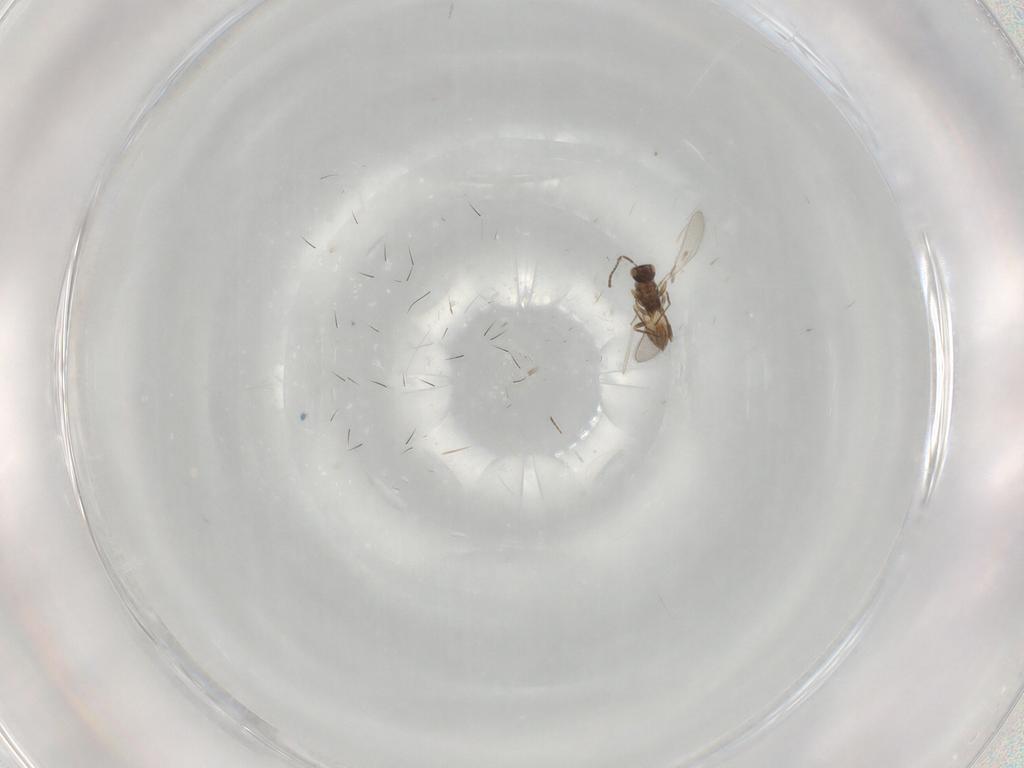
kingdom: Animalia
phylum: Arthropoda
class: Insecta
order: Hymenoptera
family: Mymaridae
